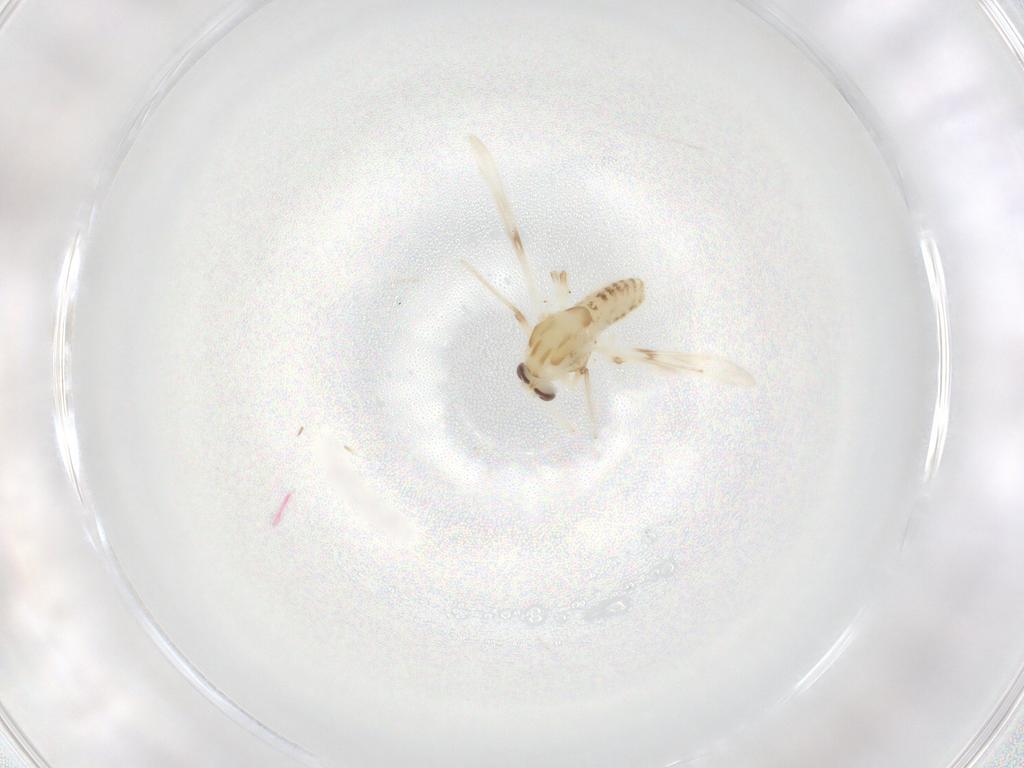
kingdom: Animalia
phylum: Arthropoda
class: Insecta
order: Diptera
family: Chironomidae
